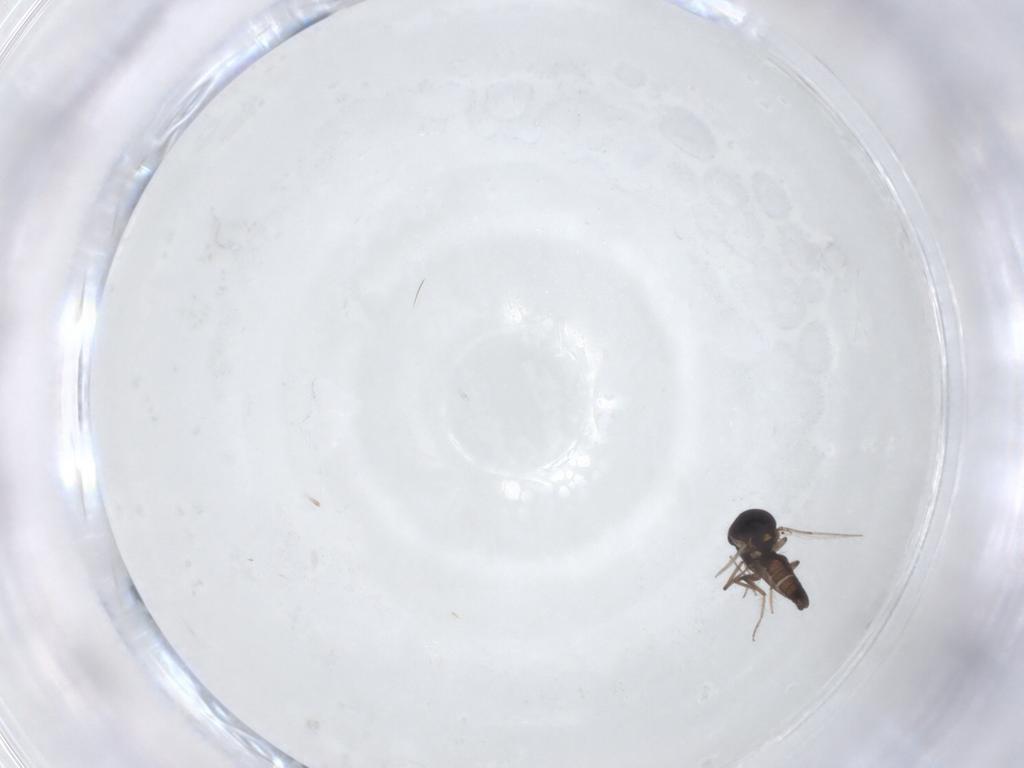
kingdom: Animalia
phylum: Arthropoda
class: Insecta
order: Diptera
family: Ceratopogonidae
